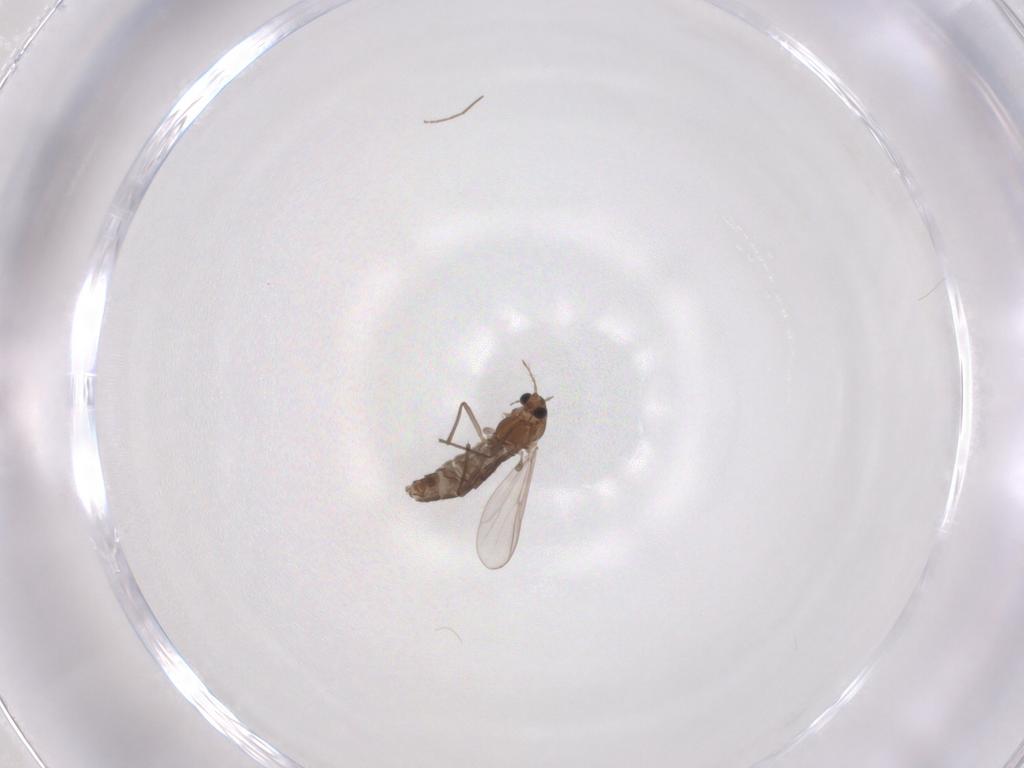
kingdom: Animalia
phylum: Arthropoda
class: Insecta
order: Diptera
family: Chironomidae
